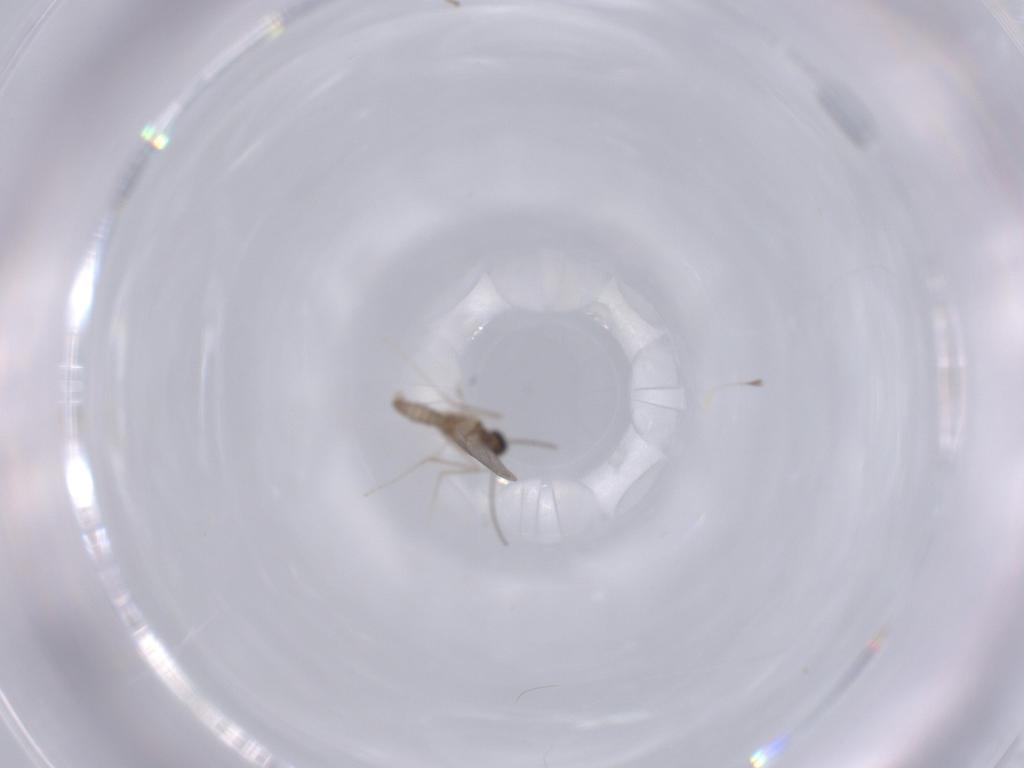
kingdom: Animalia
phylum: Arthropoda
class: Insecta
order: Diptera
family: Cecidomyiidae
